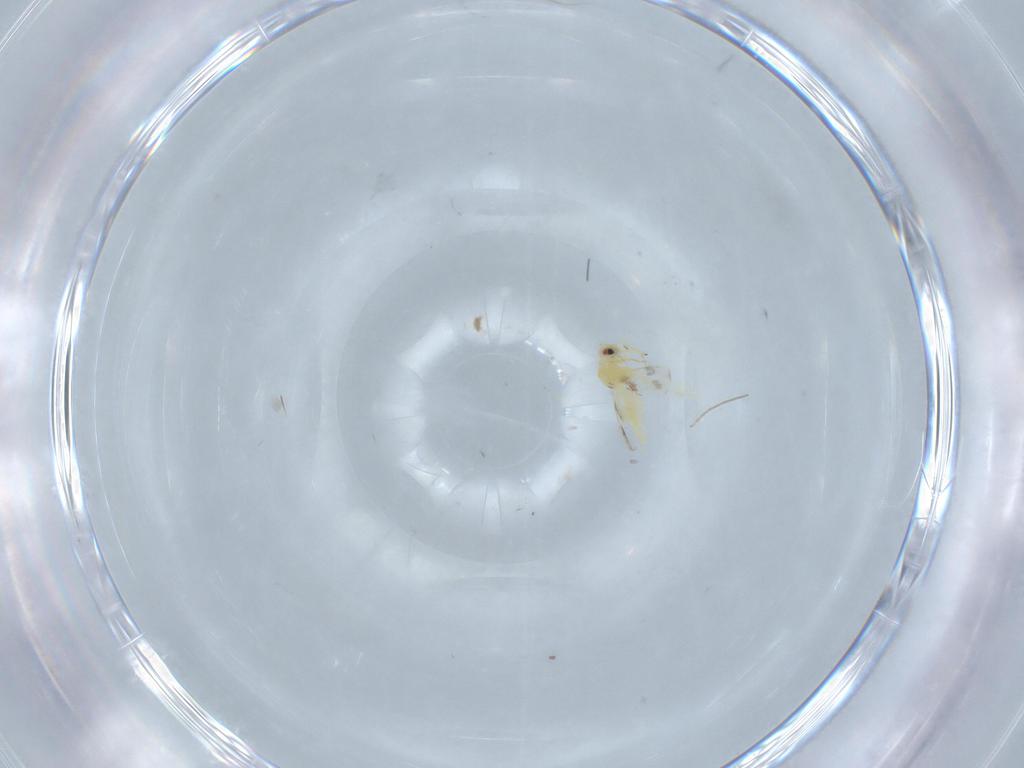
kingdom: Animalia
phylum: Arthropoda
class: Insecta
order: Hemiptera
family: Aleyrodidae
